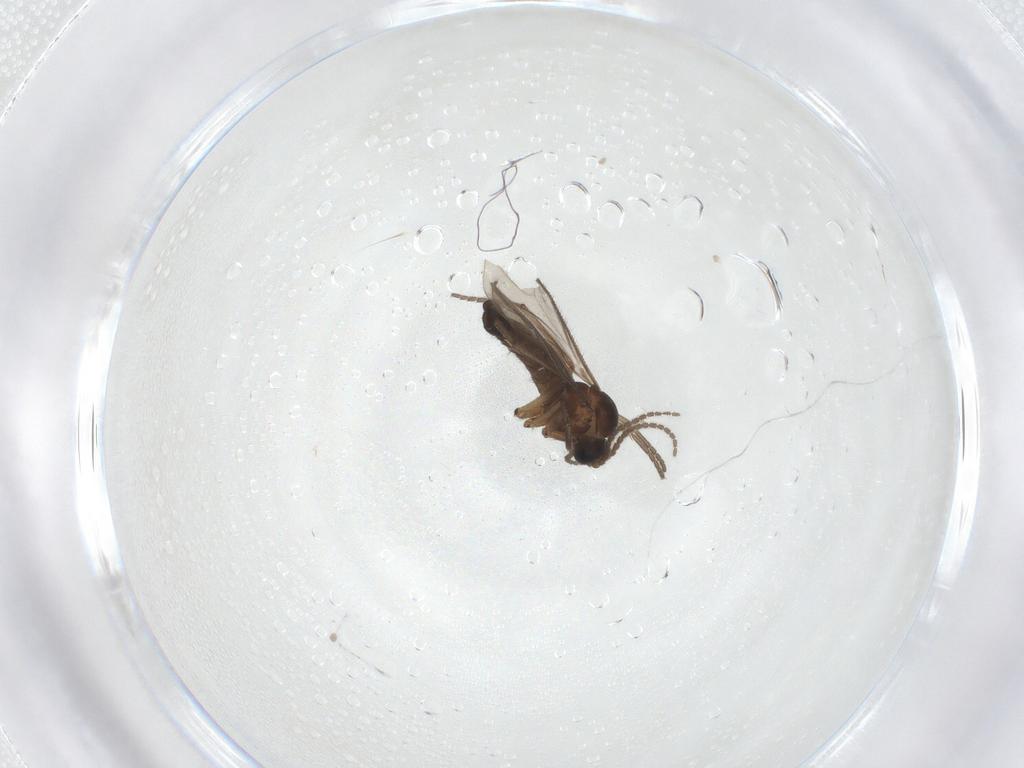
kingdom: Animalia
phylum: Arthropoda
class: Insecta
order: Diptera
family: Sciaridae
